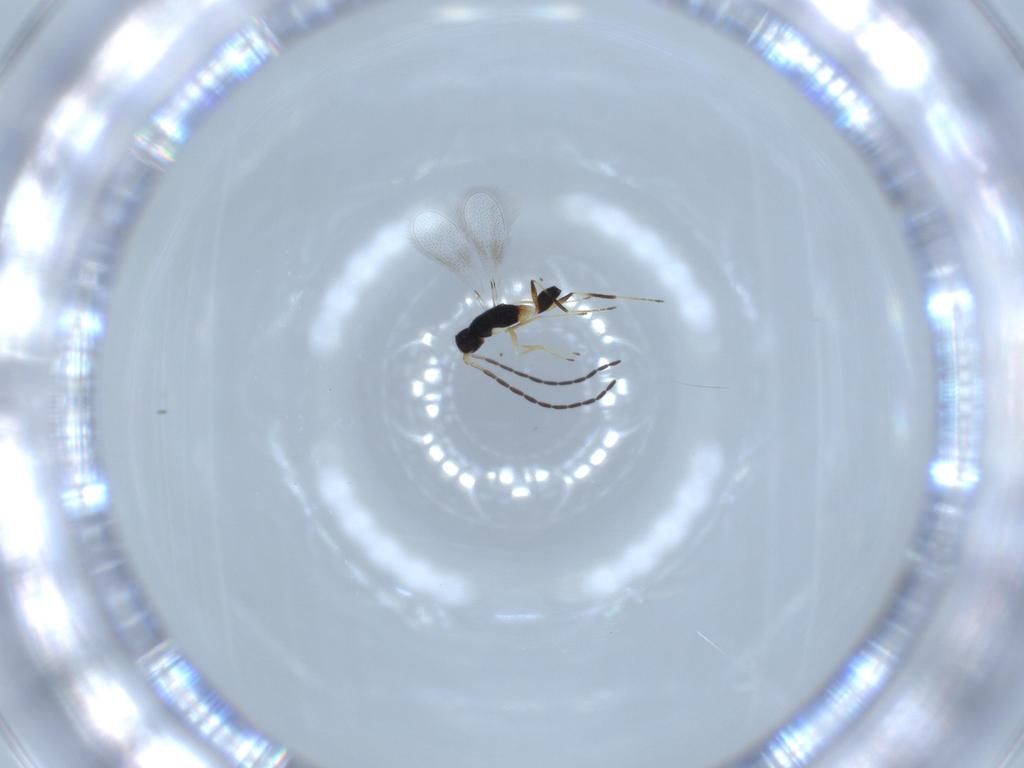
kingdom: Animalia
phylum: Arthropoda
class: Insecta
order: Hymenoptera
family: Mymaridae
